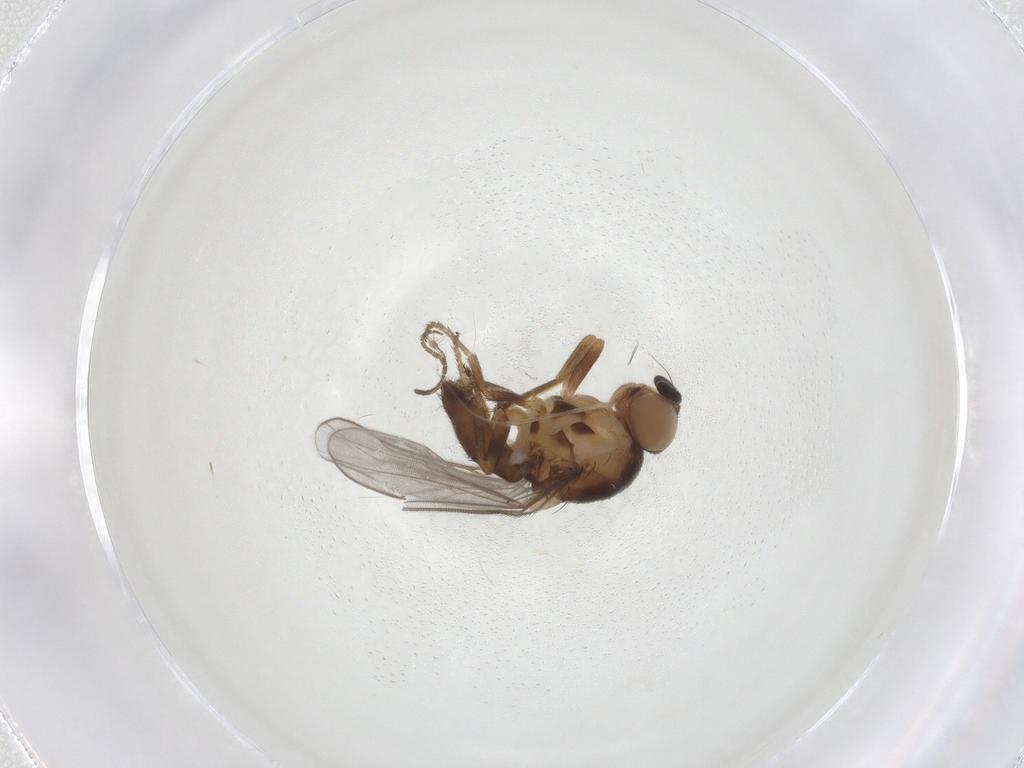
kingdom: Animalia
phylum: Arthropoda
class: Insecta
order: Diptera
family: Chloropidae
